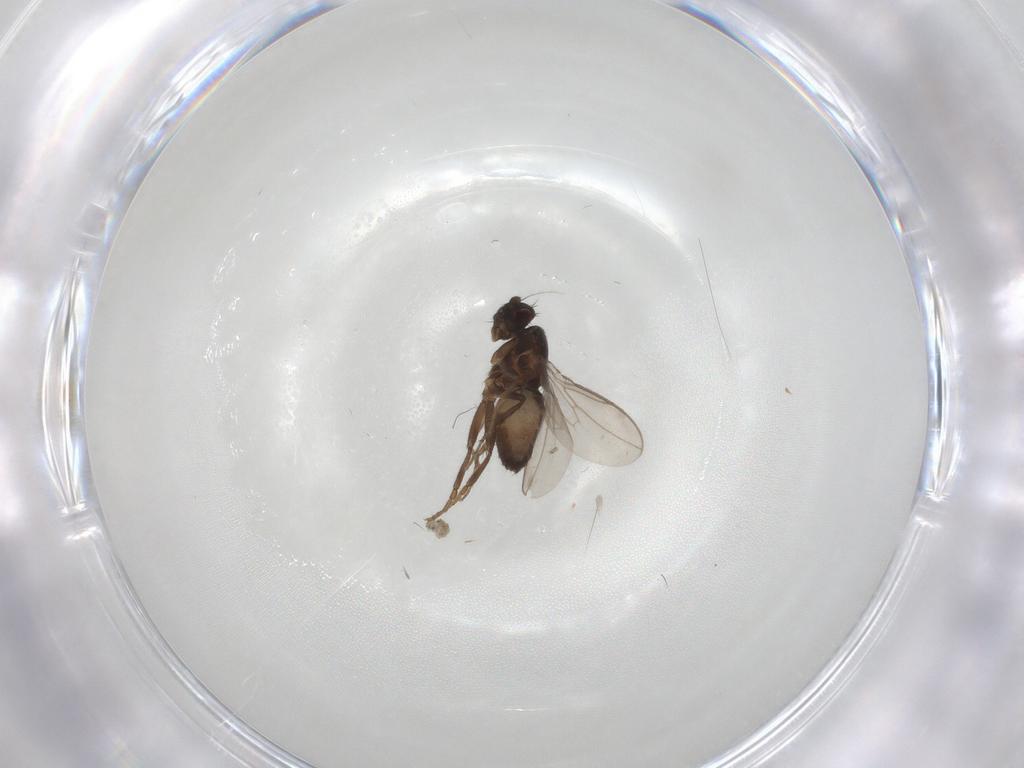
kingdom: Animalia
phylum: Arthropoda
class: Insecta
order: Diptera
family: Sphaeroceridae
